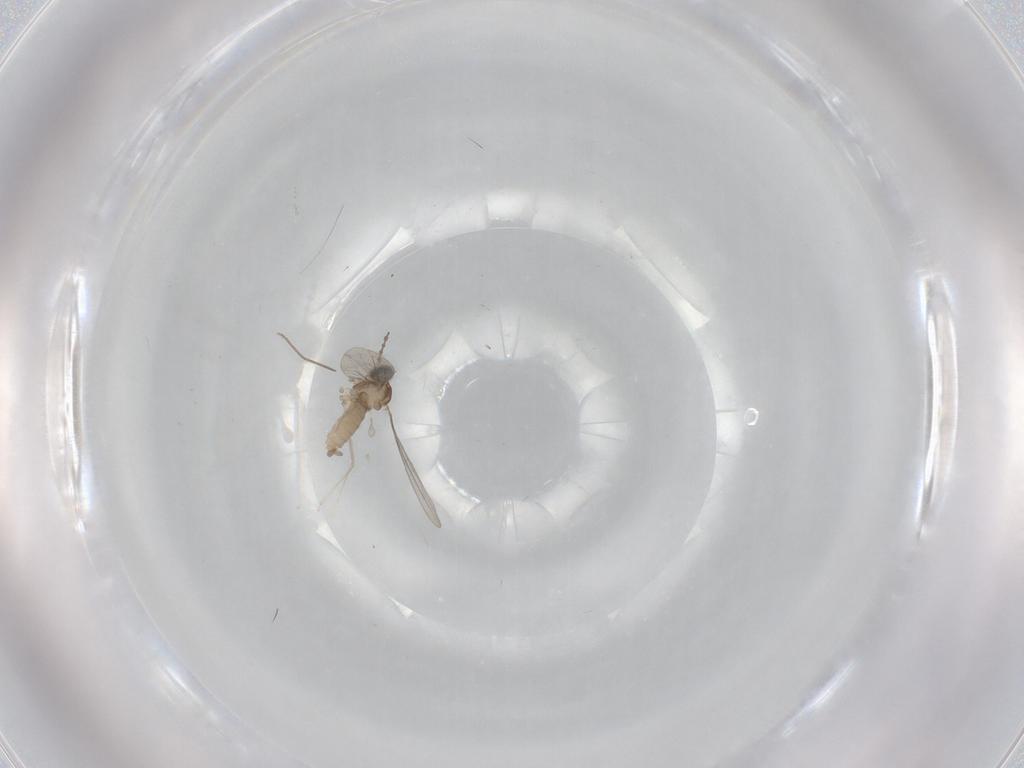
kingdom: Animalia
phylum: Arthropoda
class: Insecta
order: Diptera
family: Cecidomyiidae
